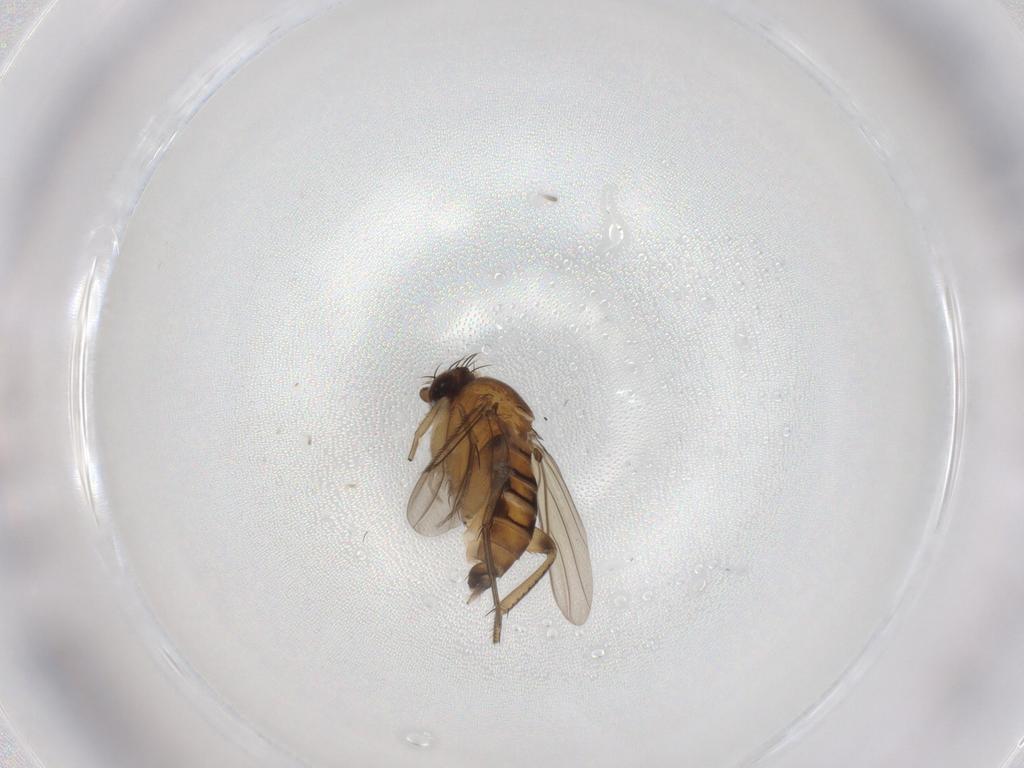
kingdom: Animalia
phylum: Arthropoda
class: Insecta
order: Diptera
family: Phoridae
